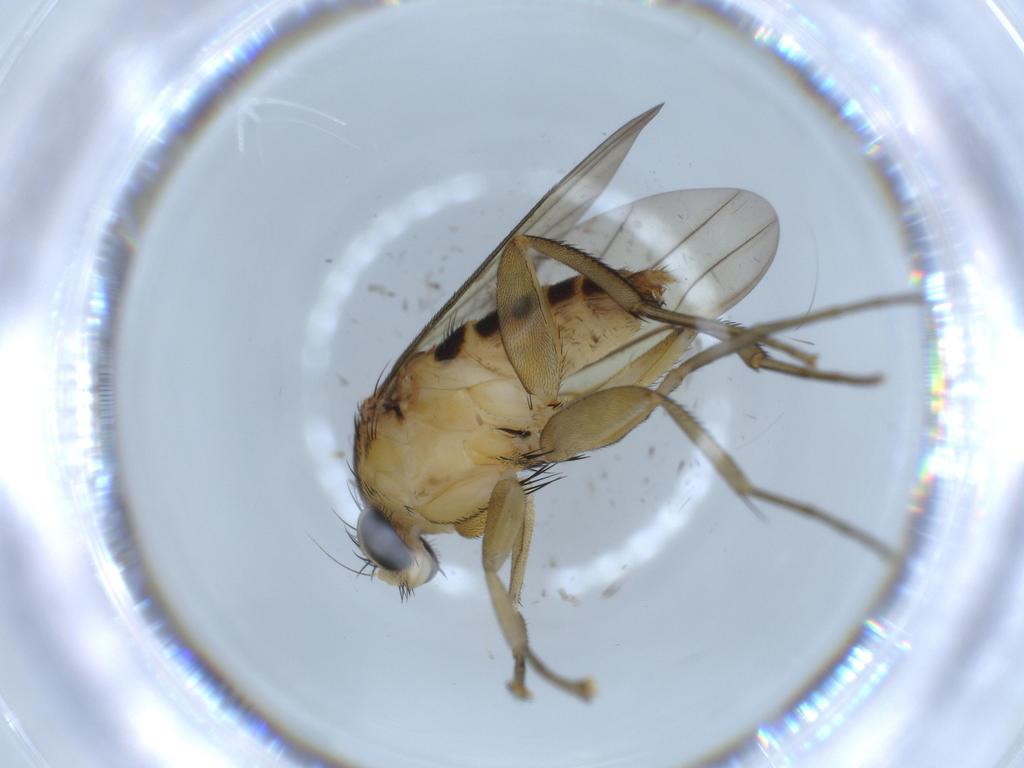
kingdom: Animalia
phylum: Arthropoda
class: Insecta
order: Diptera
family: Cecidomyiidae
